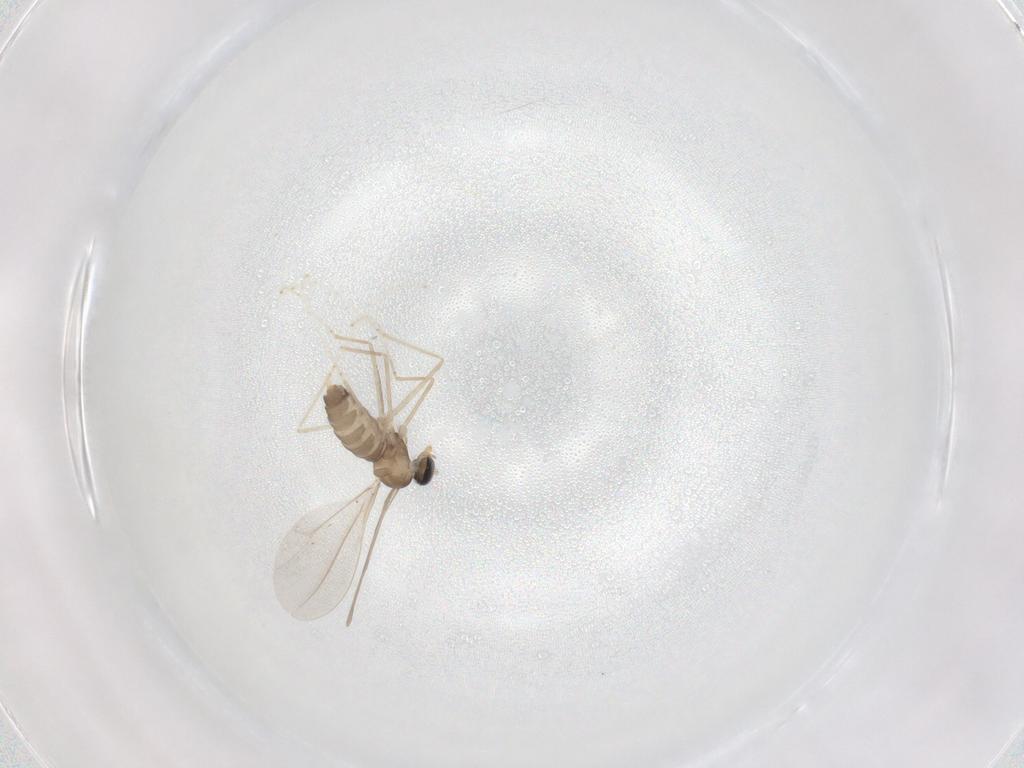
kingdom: Animalia
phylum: Arthropoda
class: Insecta
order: Diptera
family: Cecidomyiidae
